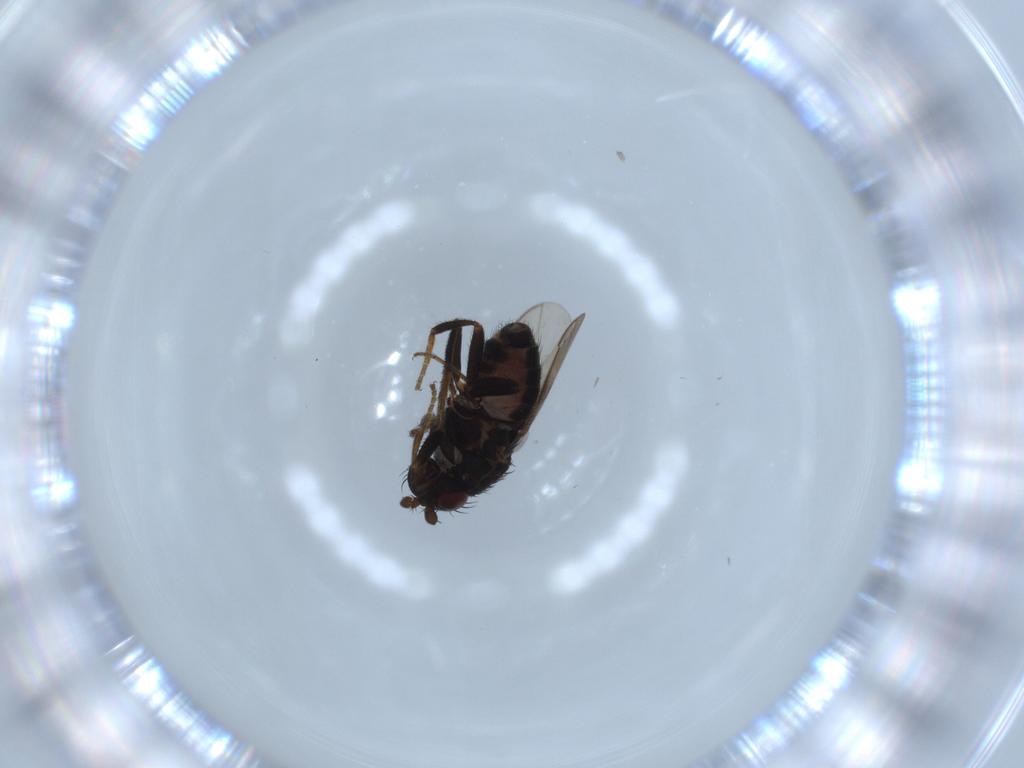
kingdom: Animalia
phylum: Arthropoda
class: Insecta
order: Diptera
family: Sphaeroceridae
